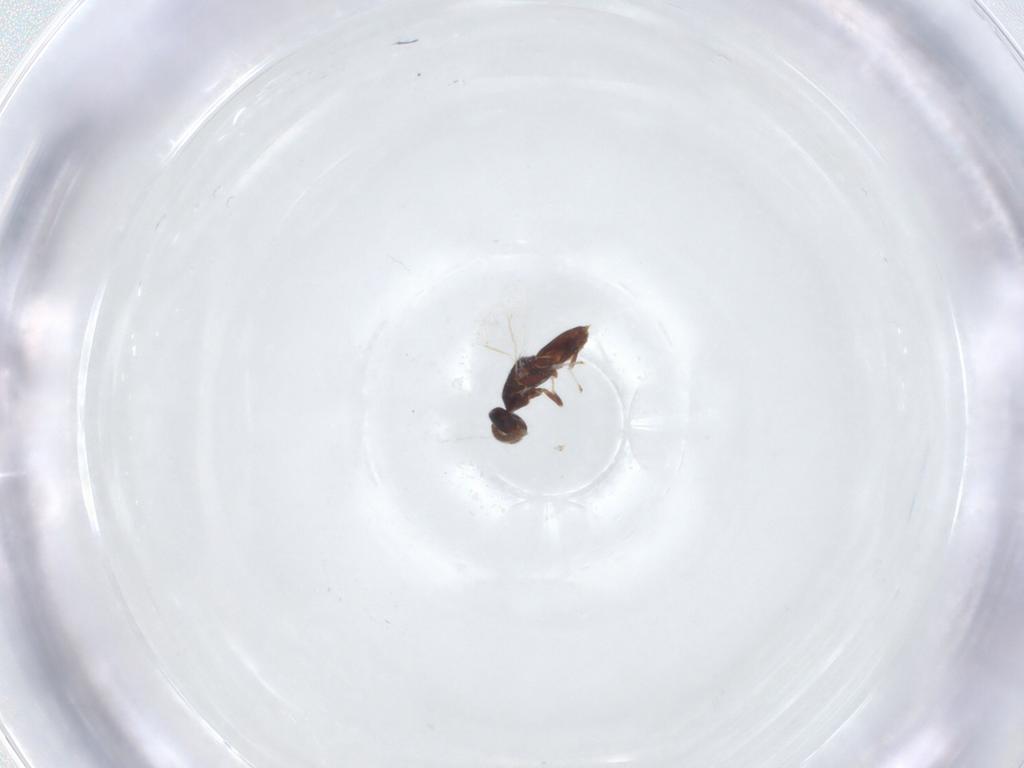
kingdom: Animalia
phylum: Arthropoda
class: Insecta
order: Hymenoptera
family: Trichogrammatidae
